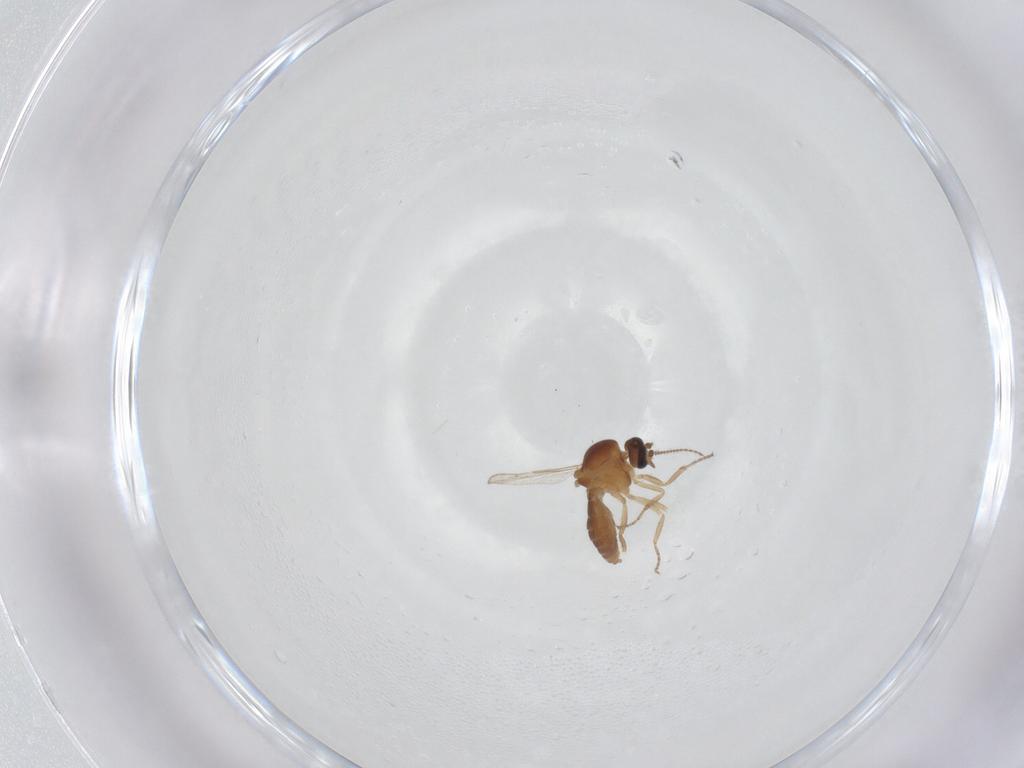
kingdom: Animalia
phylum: Arthropoda
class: Insecta
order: Diptera
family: Ceratopogonidae
